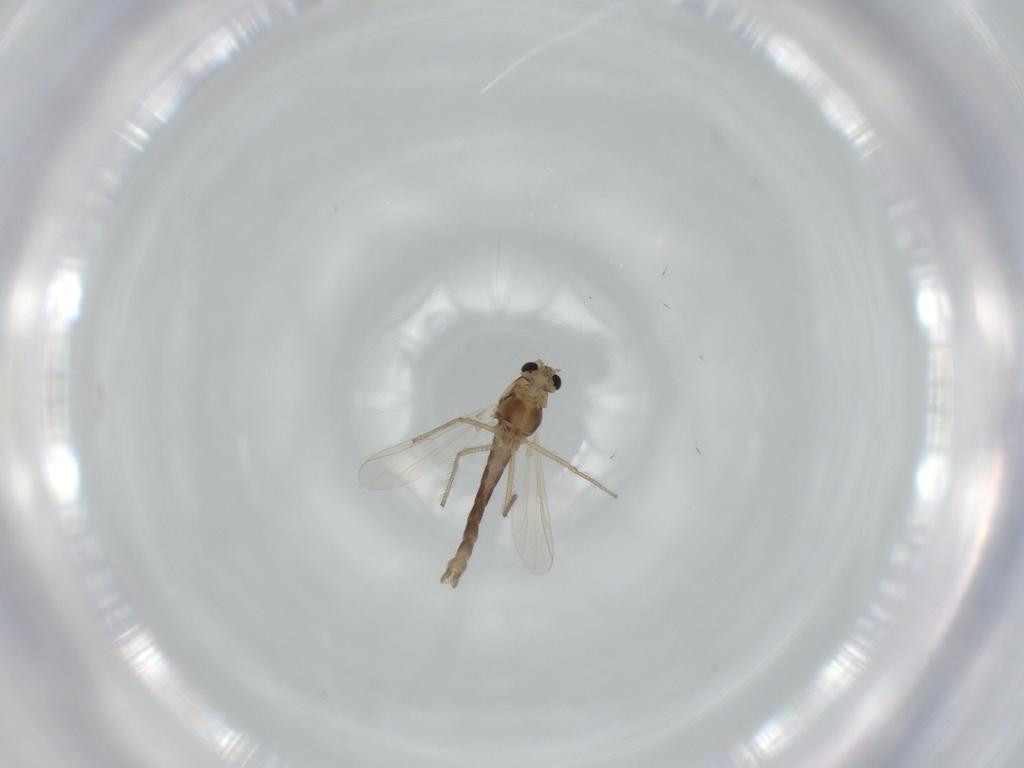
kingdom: Animalia
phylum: Arthropoda
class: Insecta
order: Diptera
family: Chironomidae
